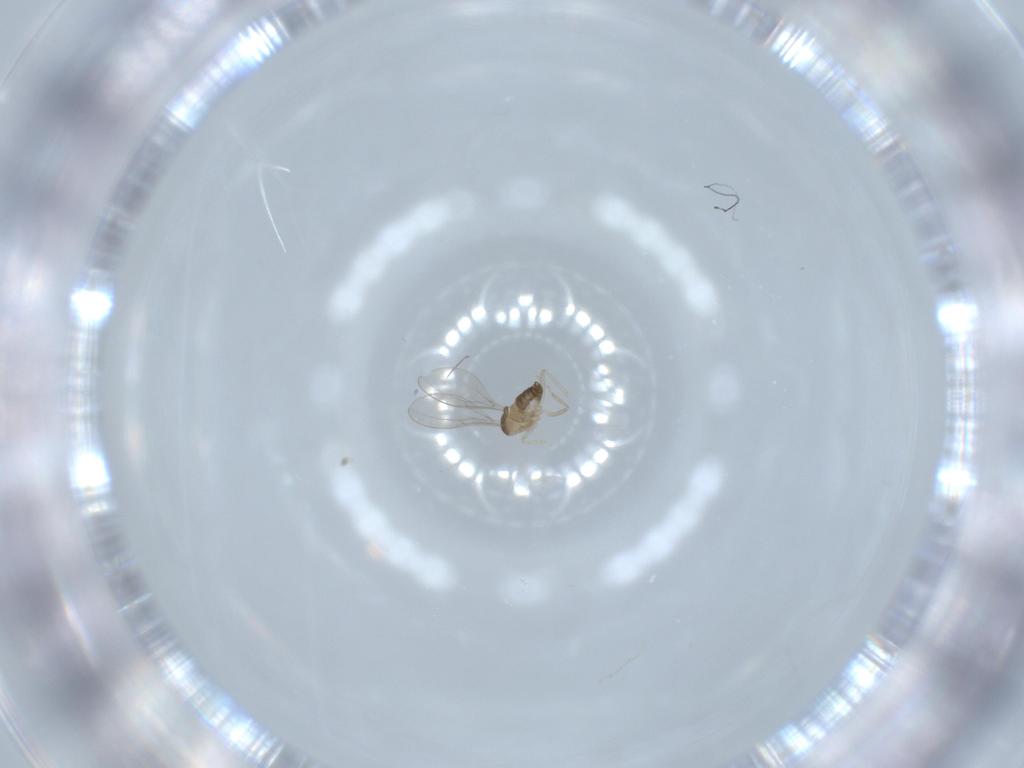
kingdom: Animalia
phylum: Arthropoda
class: Insecta
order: Diptera
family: Cecidomyiidae
